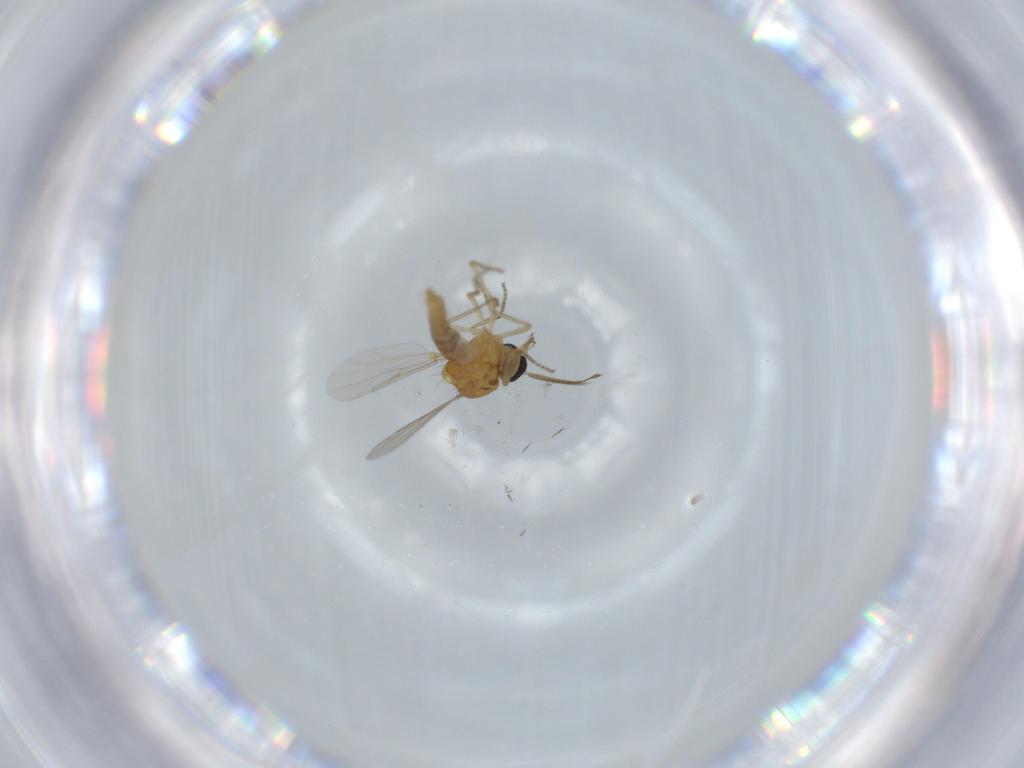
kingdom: Animalia
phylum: Arthropoda
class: Insecta
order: Diptera
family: Ceratopogonidae
